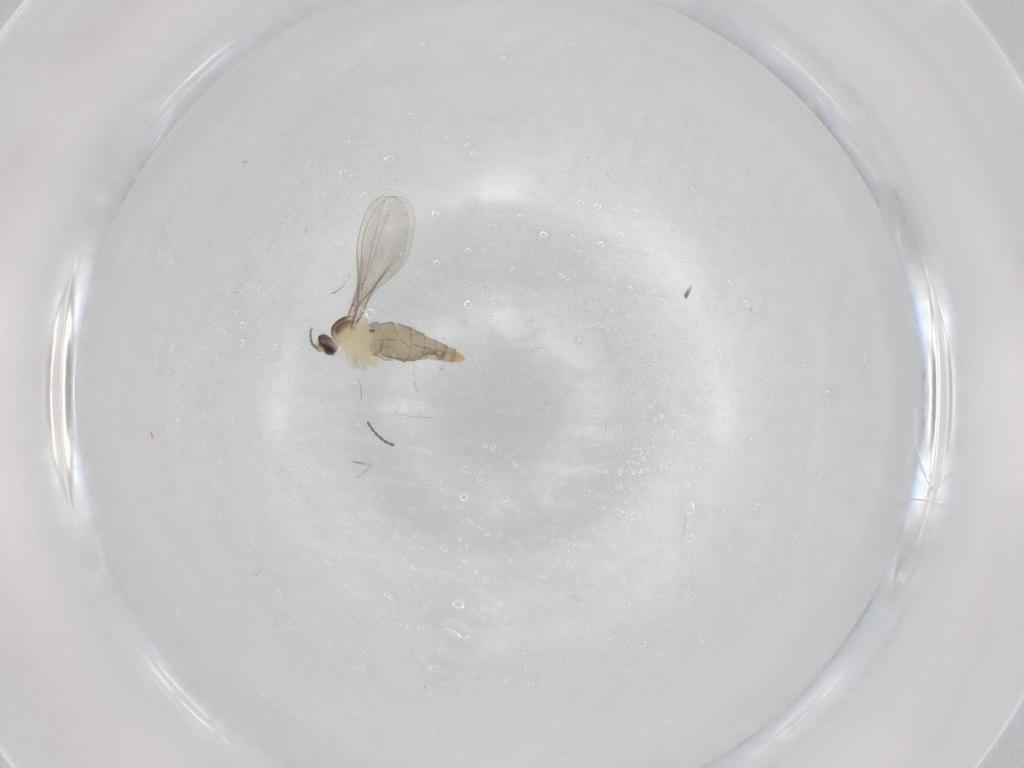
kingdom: Animalia
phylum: Arthropoda
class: Insecta
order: Diptera
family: Cecidomyiidae
